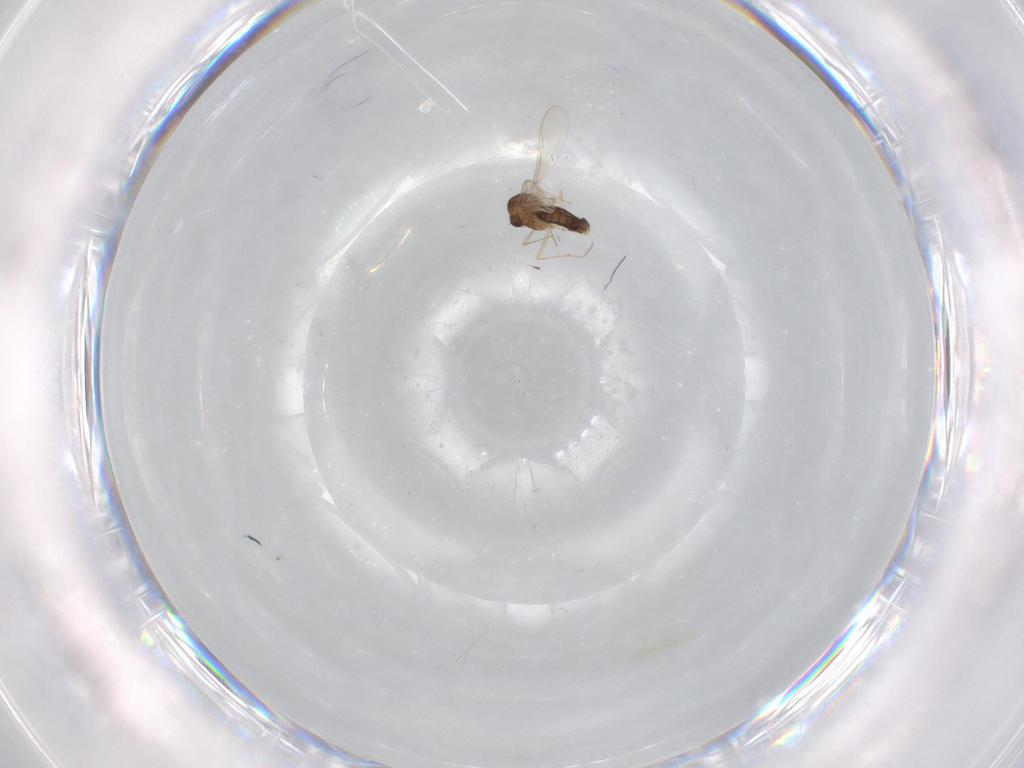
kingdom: Animalia
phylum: Arthropoda
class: Insecta
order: Diptera
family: Chironomidae
